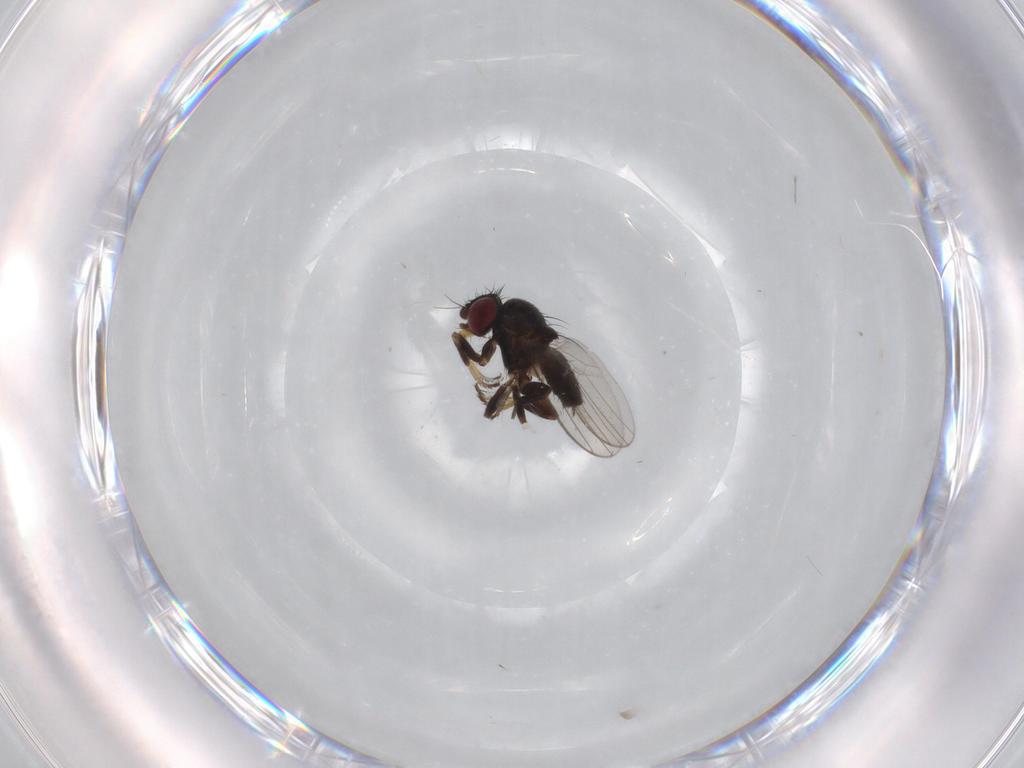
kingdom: Animalia
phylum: Arthropoda
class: Insecta
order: Diptera
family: Milichiidae
